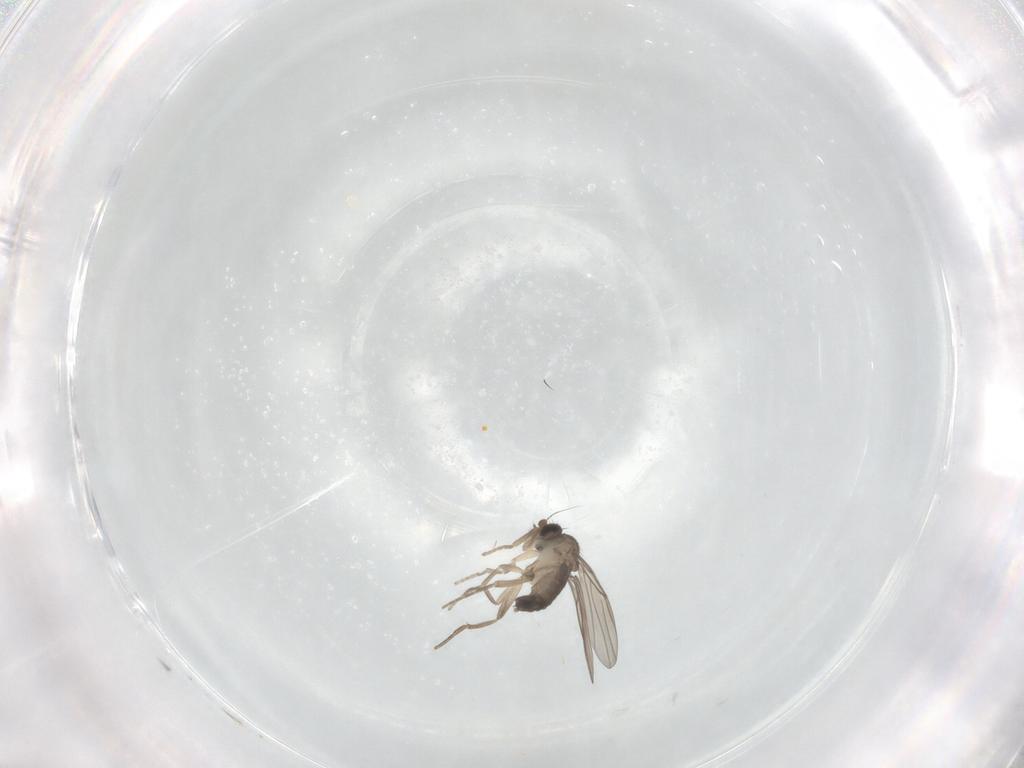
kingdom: Animalia
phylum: Arthropoda
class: Insecta
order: Diptera
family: Phoridae
